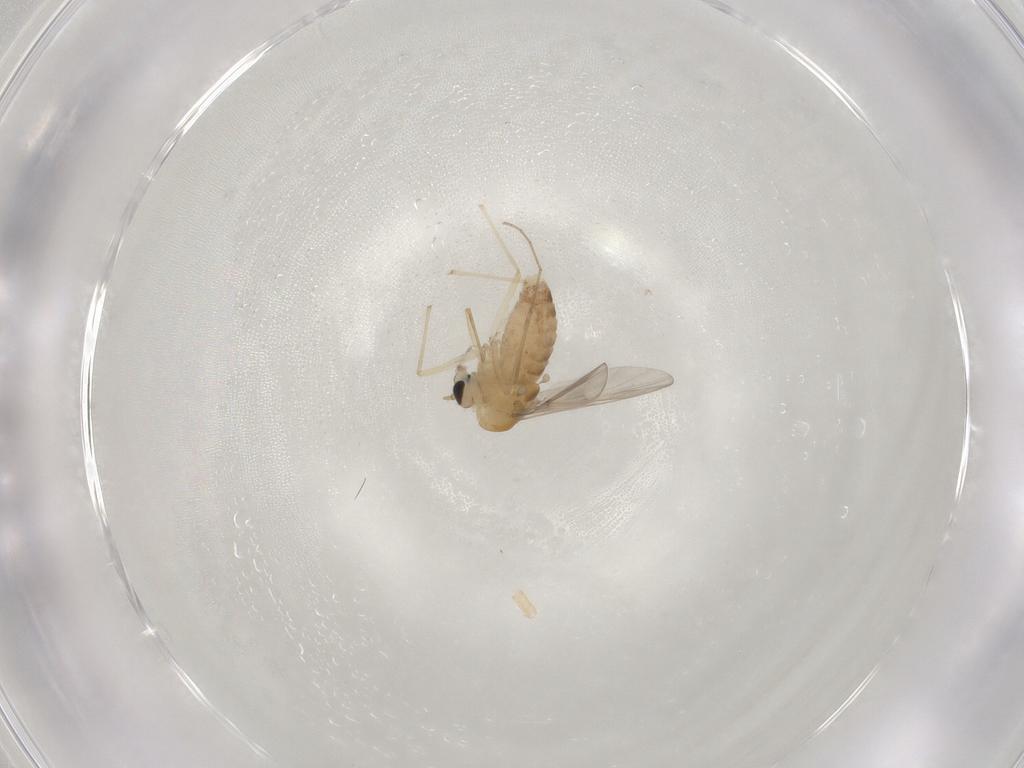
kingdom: Animalia
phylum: Arthropoda
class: Insecta
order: Diptera
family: Chironomidae
